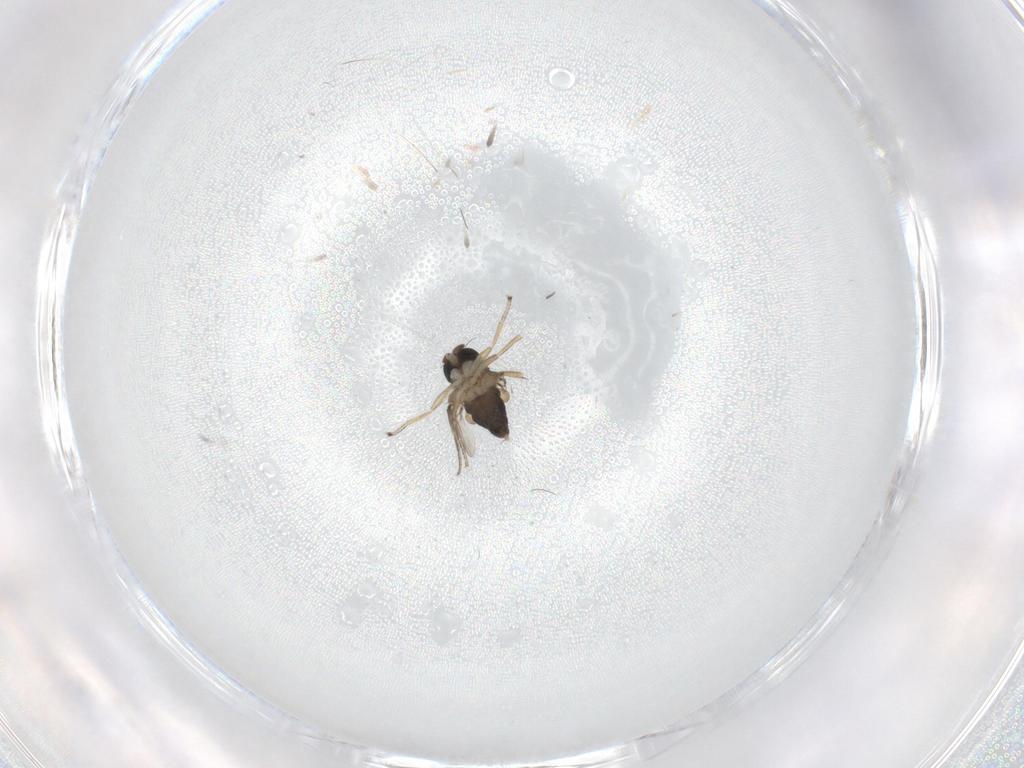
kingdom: Animalia
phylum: Arthropoda
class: Insecta
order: Diptera
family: Phoridae
